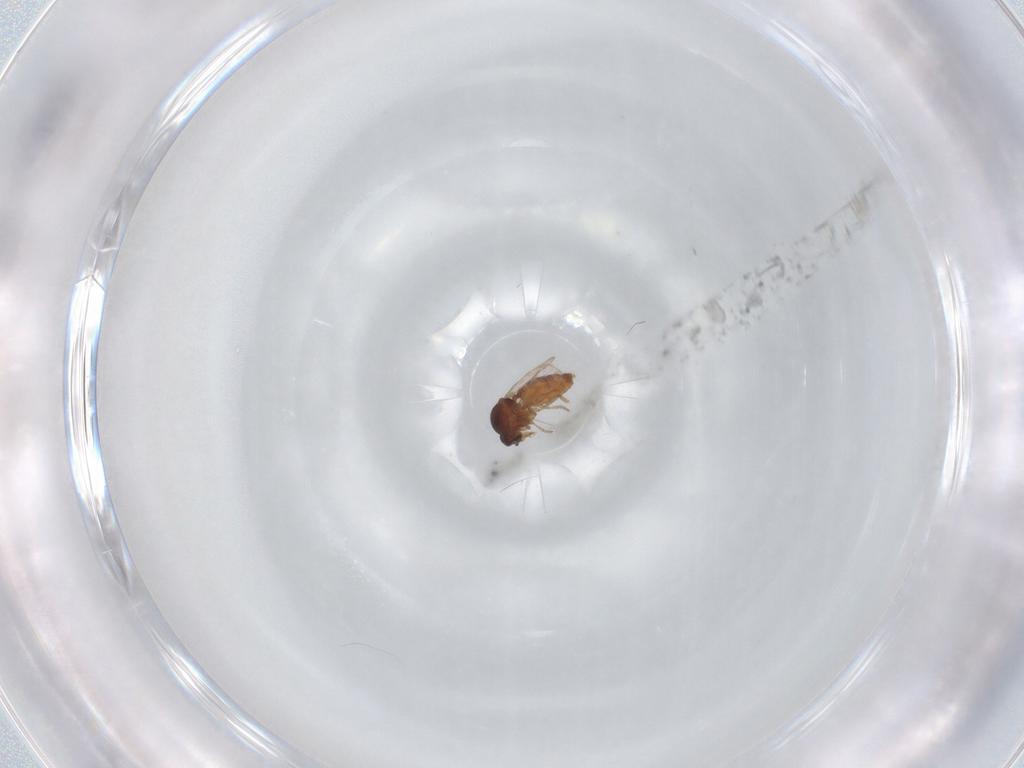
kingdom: Animalia
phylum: Arthropoda
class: Insecta
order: Diptera
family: Ceratopogonidae
